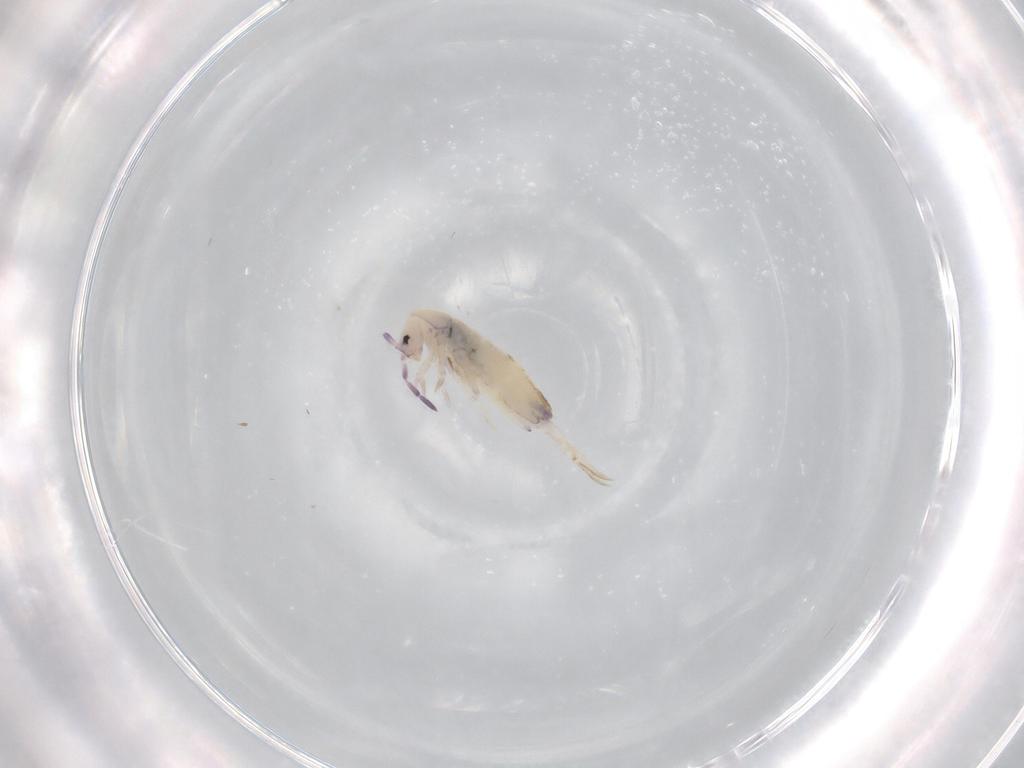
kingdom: Animalia
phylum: Arthropoda
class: Collembola
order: Entomobryomorpha
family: Entomobryidae
